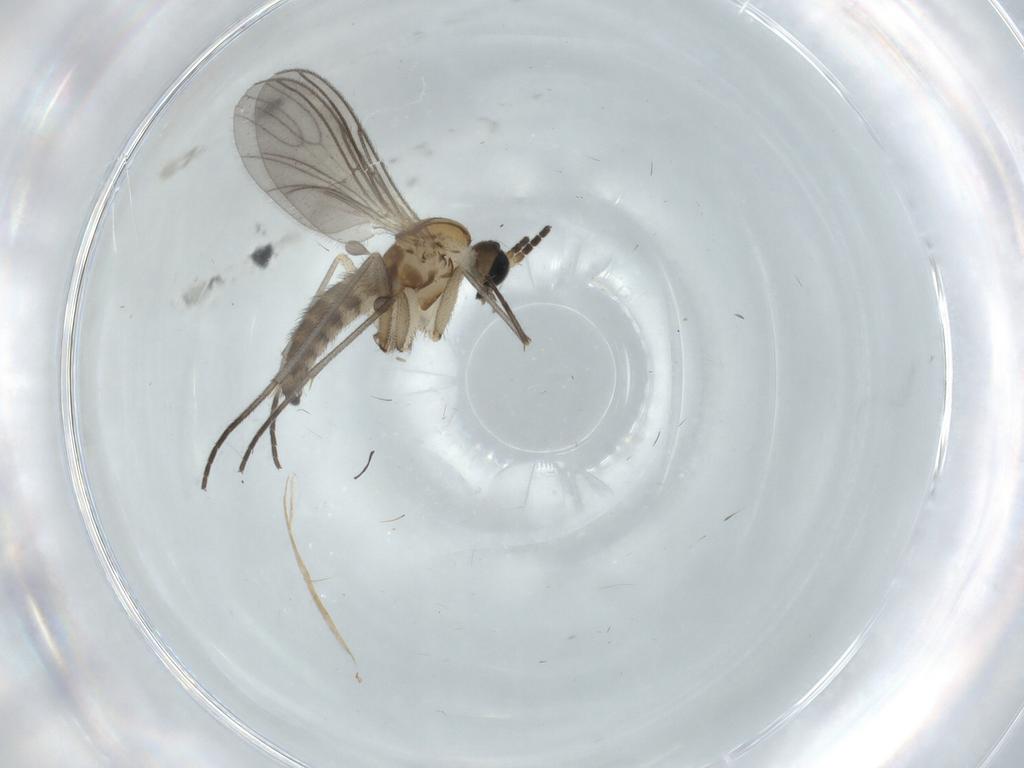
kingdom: Animalia
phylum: Arthropoda
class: Insecta
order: Diptera
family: Sciaridae
